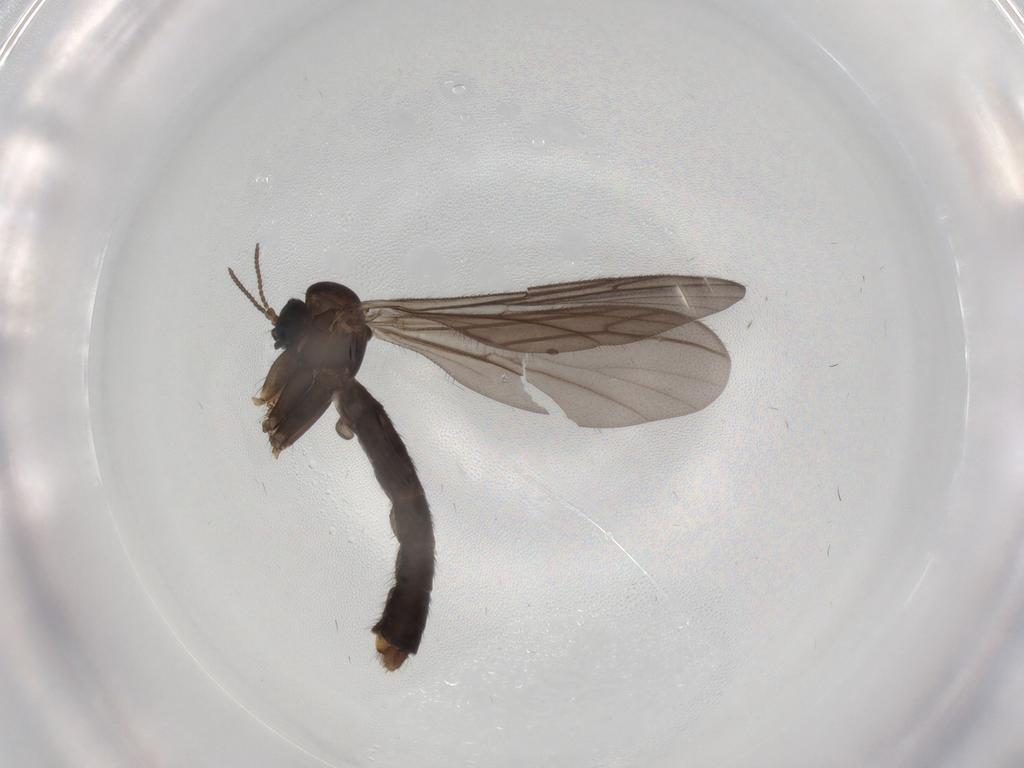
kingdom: Animalia
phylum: Arthropoda
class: Insecta
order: Diptera
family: Keroplatidae
